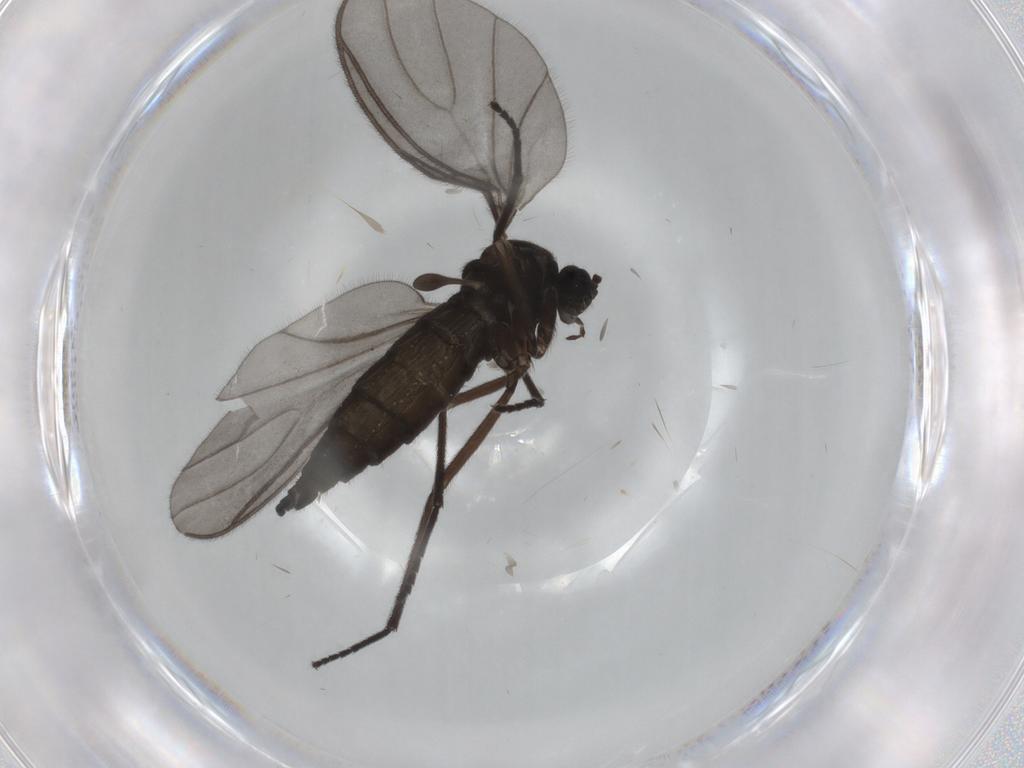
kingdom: Animalia
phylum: Arthropoda
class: Insecta
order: Diptera
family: Sciaridae
